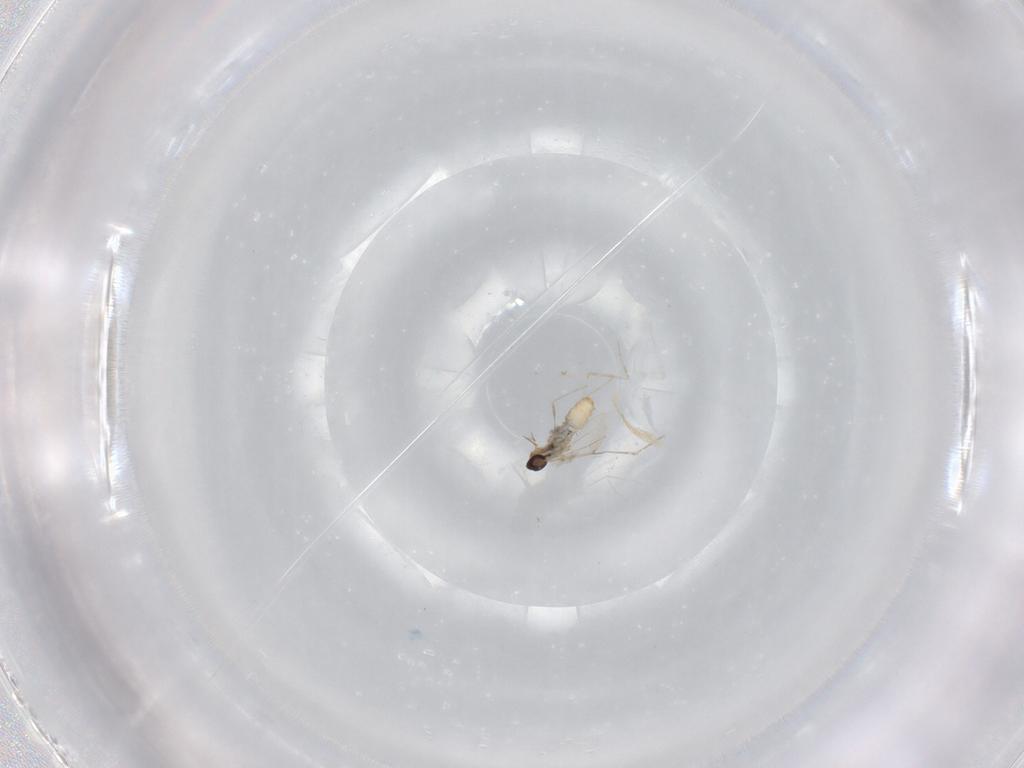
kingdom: Animalia
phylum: Arthropoda
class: Insecta
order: Diptera
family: Cecidomyiidae
